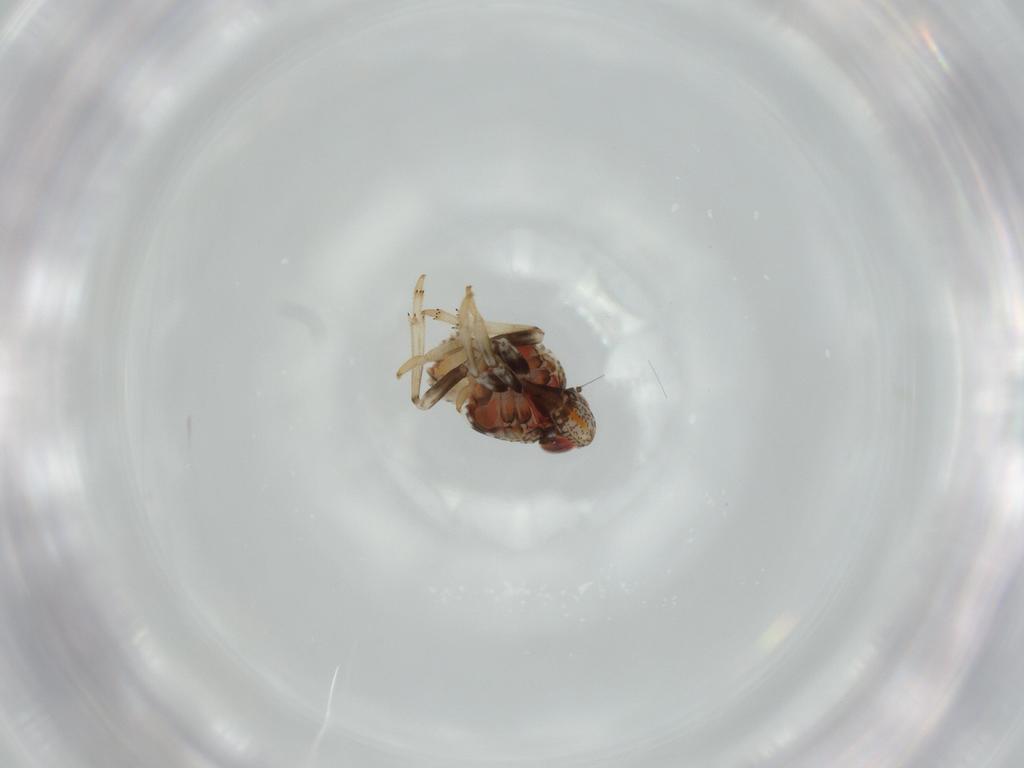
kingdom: Animalia
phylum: Arthropoda
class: Insecta
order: Hemiptera
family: Issidae
